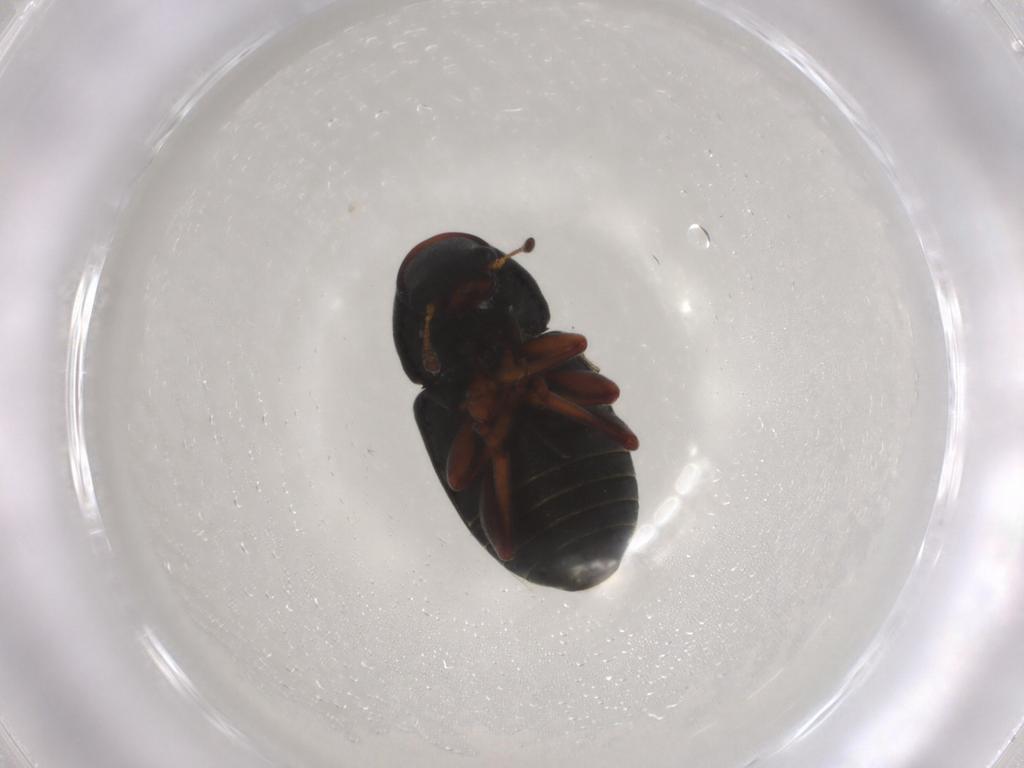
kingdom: Animalia
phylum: Arthropoda
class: Insecta
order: Coleoptera
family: Anthribidae
